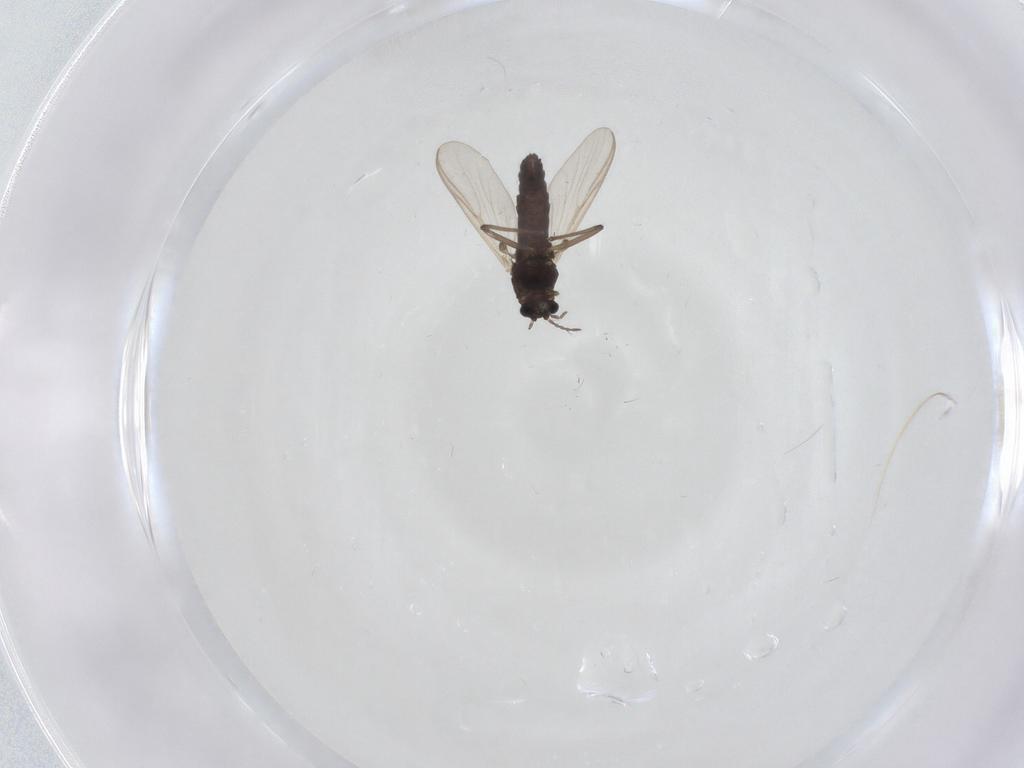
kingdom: Animalia
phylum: Arthropoda
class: Insecta
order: Diptera
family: Chironomidae
